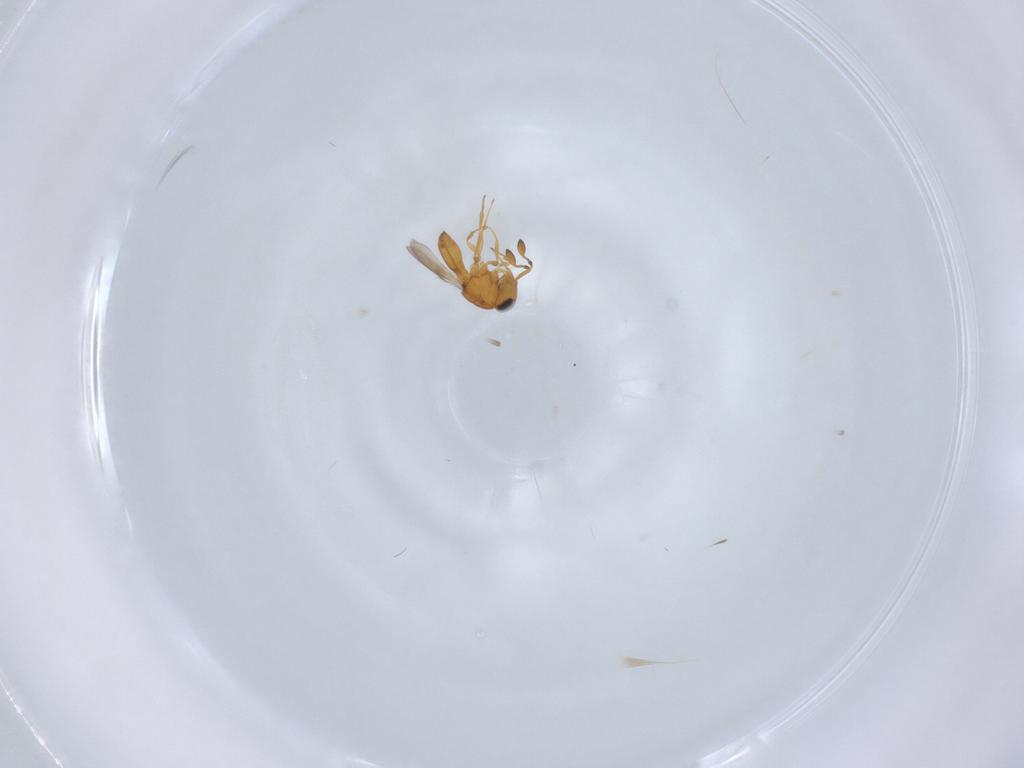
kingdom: Animalia
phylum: Arthropoda
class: Insecta
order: Hymenoptera
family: Scelionidae
